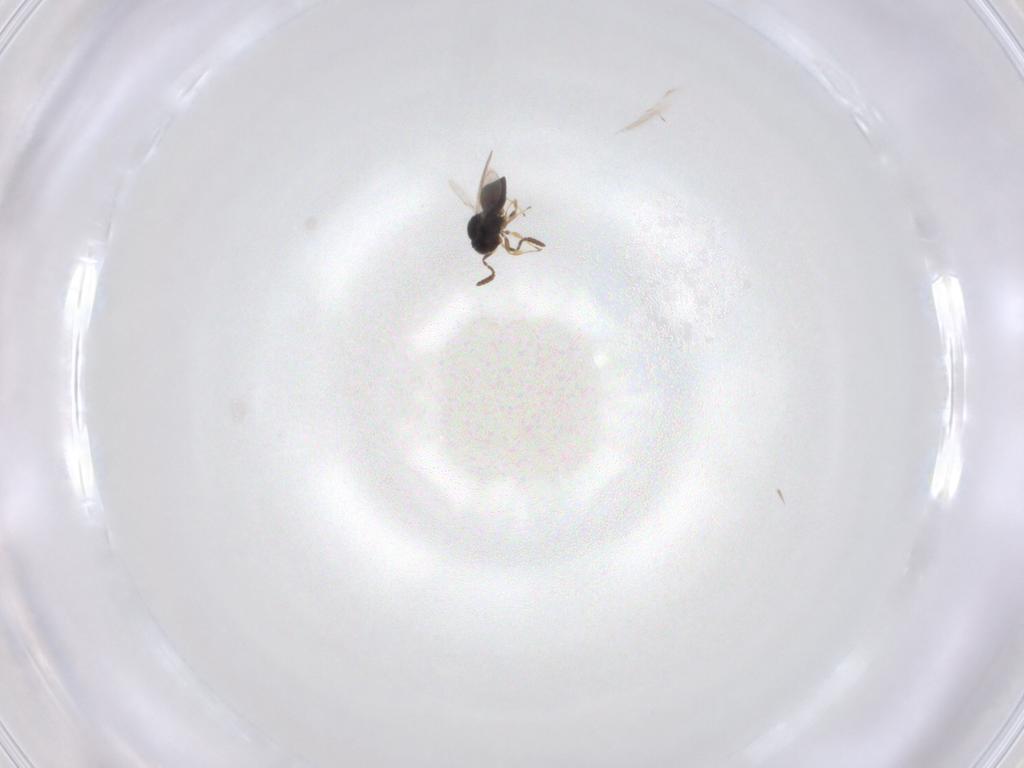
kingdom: Animalia
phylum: Arthropoda
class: Insecta
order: Hymenoptera
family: Scelionidae
